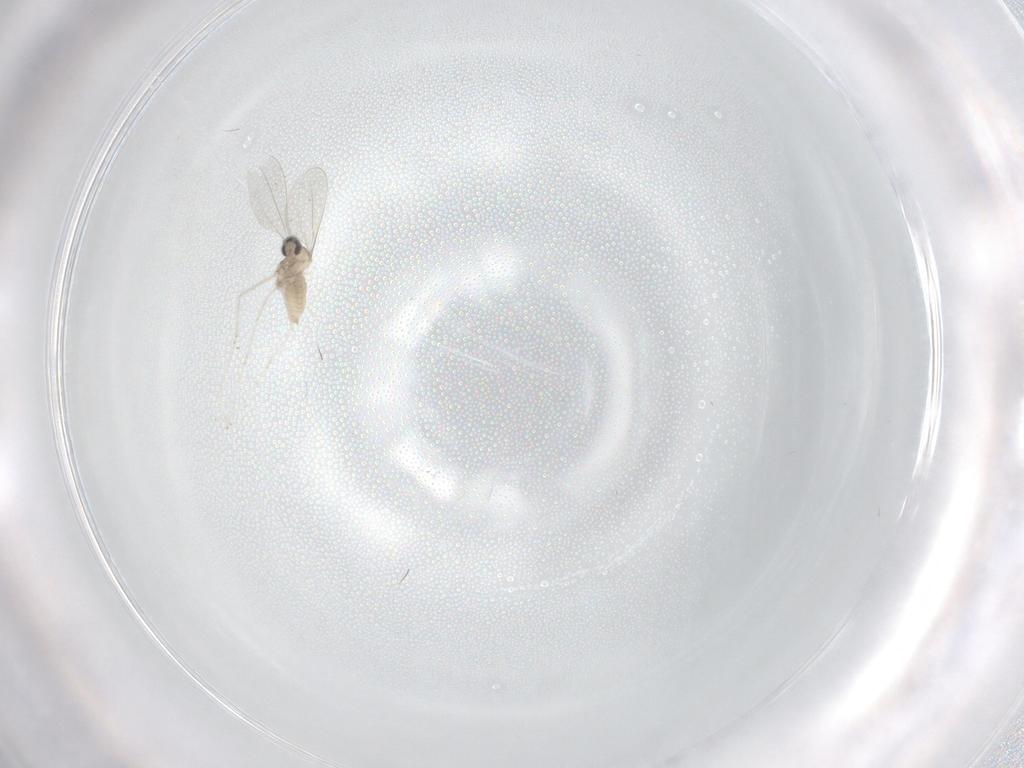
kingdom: Animalia
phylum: Arthropoda
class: Insecta
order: Diptera
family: Cecidomyiidae
